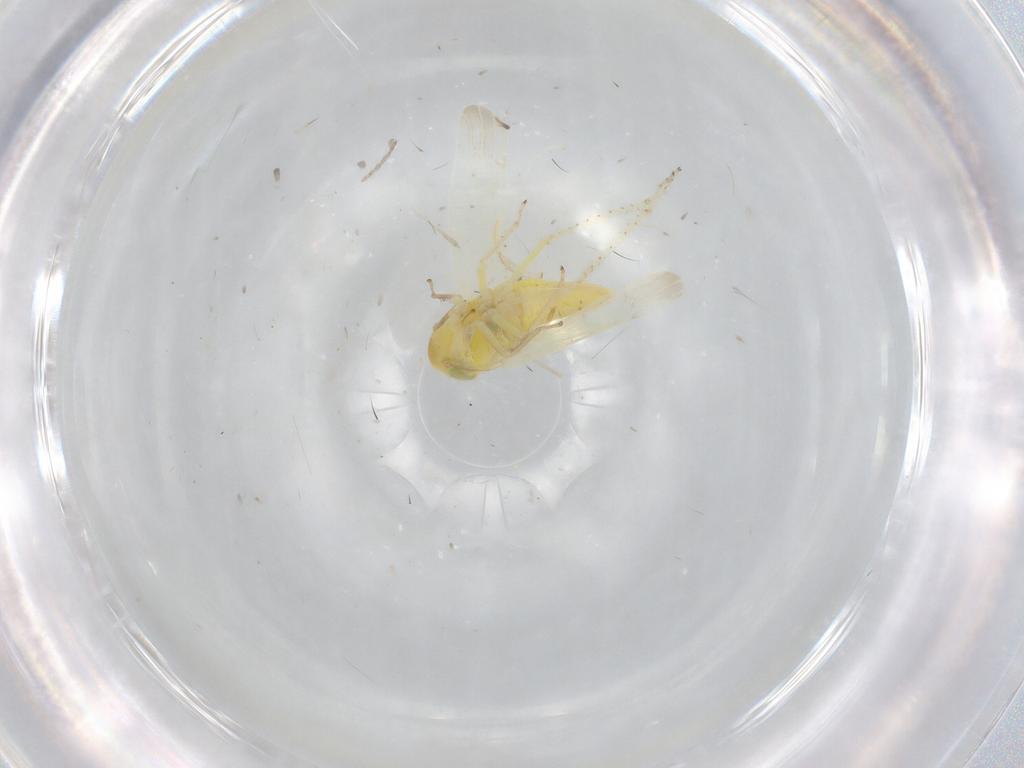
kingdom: Animalia
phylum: Arthropoda
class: Insecta
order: Hemiptera
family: Cicadellidae
